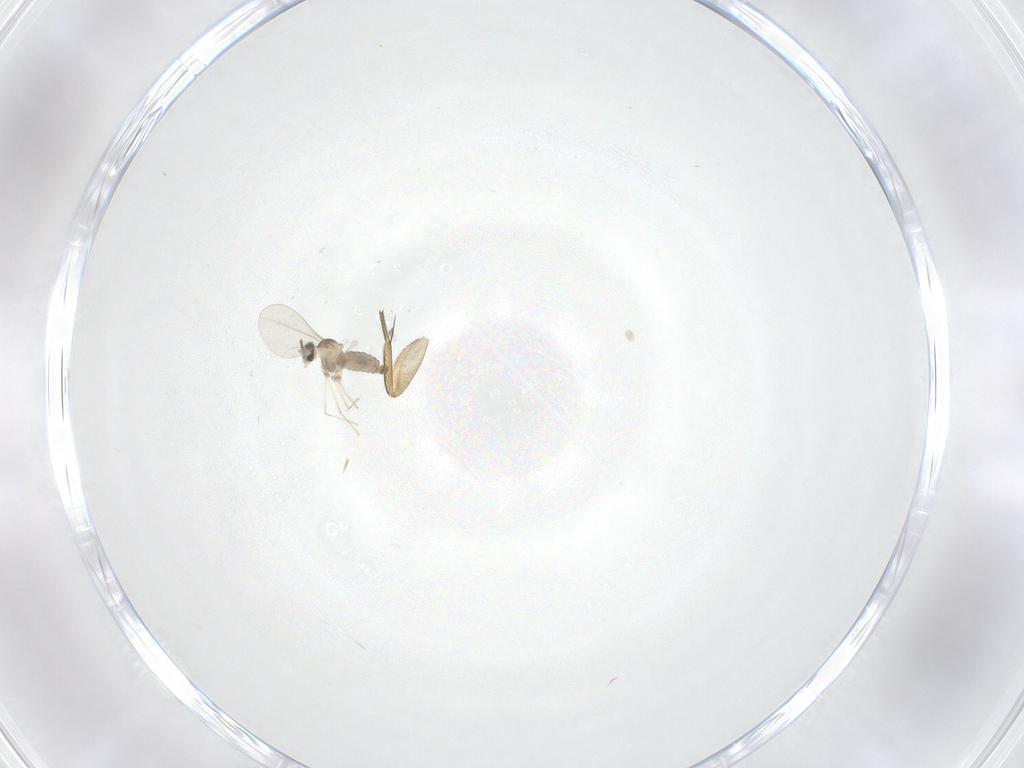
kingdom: Animalia
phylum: Arthropoda
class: Insecta
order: Diptera
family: Phoridae
